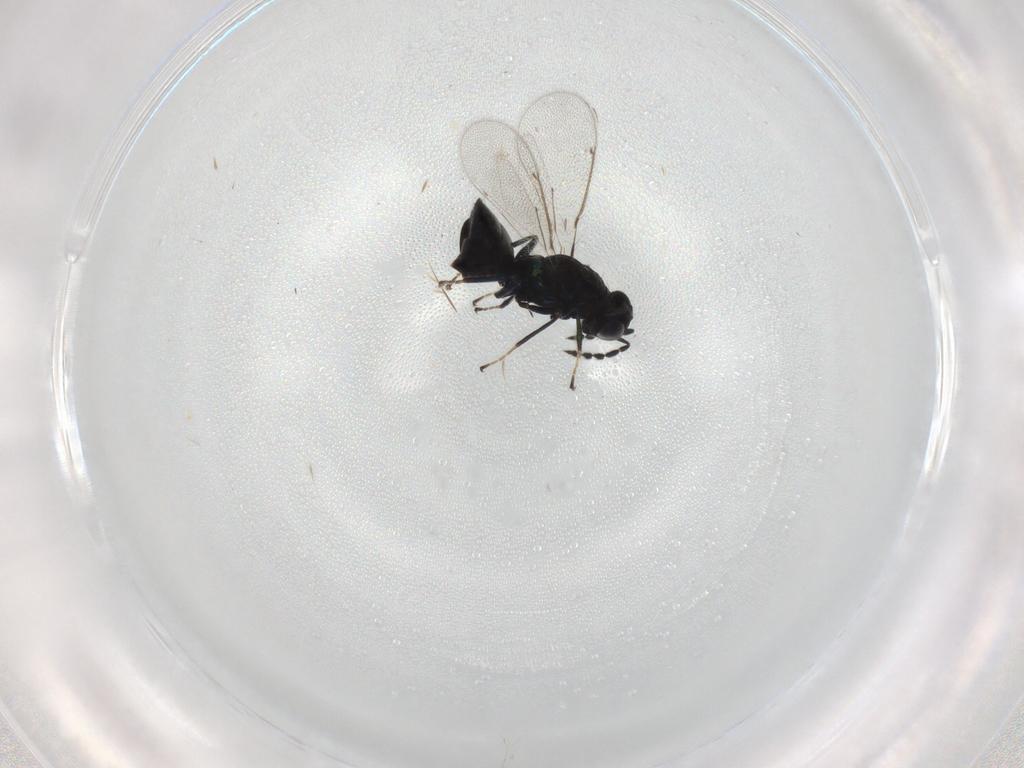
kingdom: Animalia
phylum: Arthropoda
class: Insecta
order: Hymenoptera
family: Eulophidae
